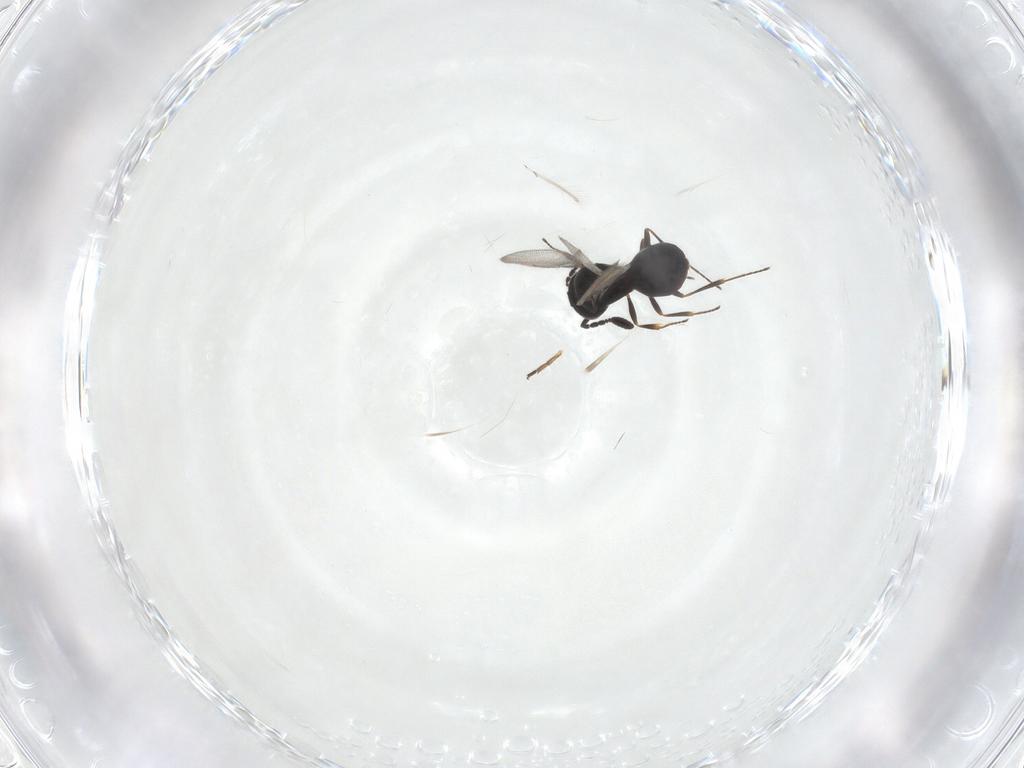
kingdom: Animalia
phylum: Arthropoda
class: Insecta
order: Hymenoptera
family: Scelionidae
